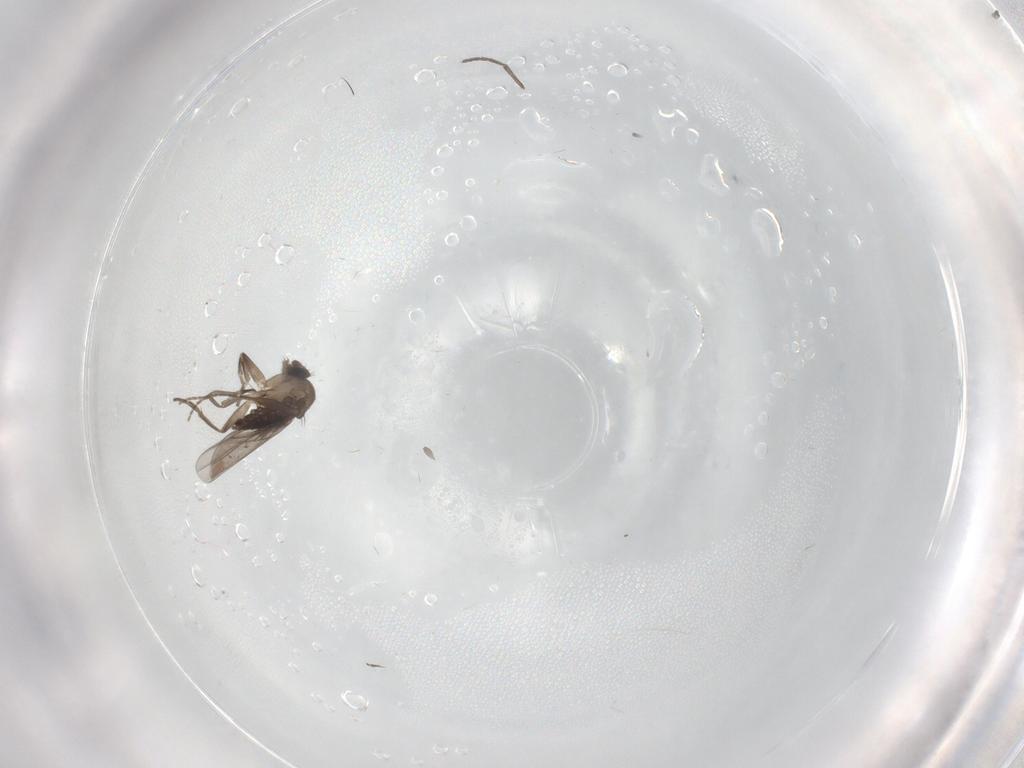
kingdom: Animalia
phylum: Arthropoda
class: Insecta
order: Diptera
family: Sciaridae
